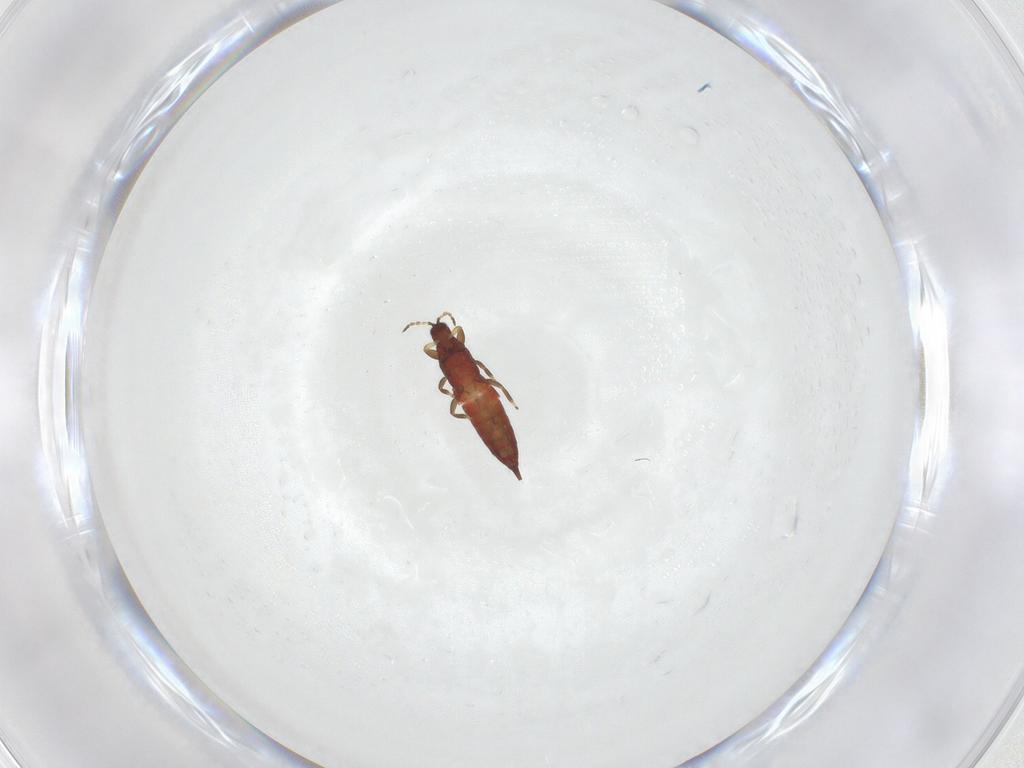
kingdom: Animalia
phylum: Arthropoda
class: Insecta
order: Thysanoptera
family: Phlaeothripidae
